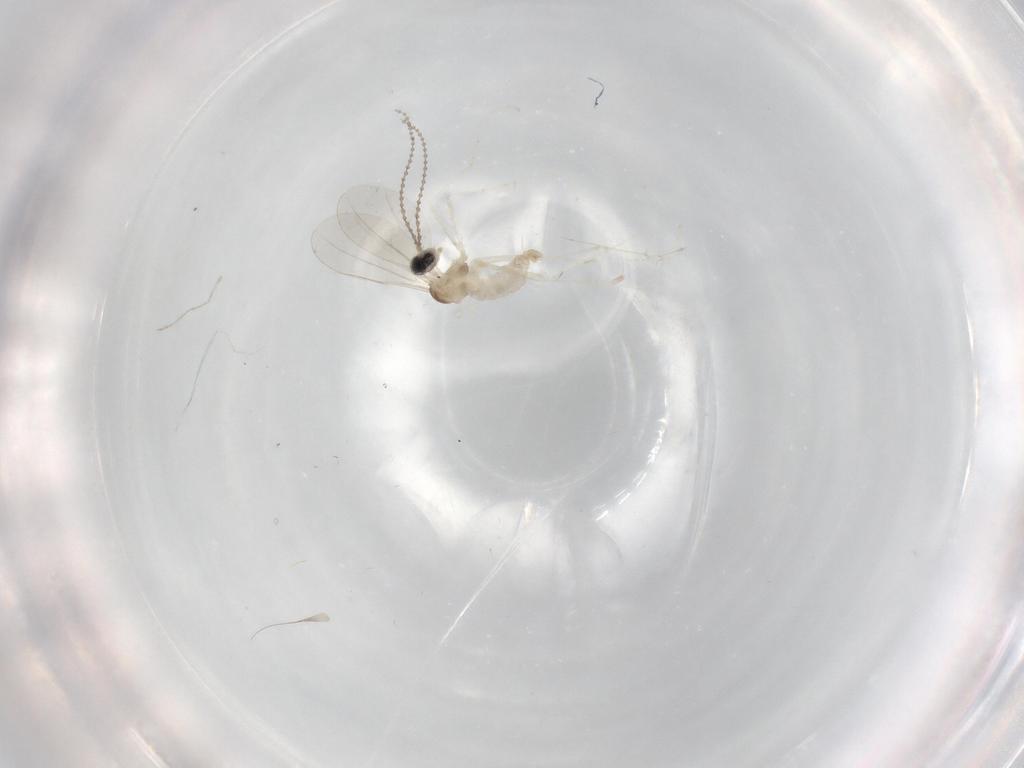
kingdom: Animalia
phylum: Arthropoda
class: Insecta
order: Diptera
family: Cecidomyiidae
